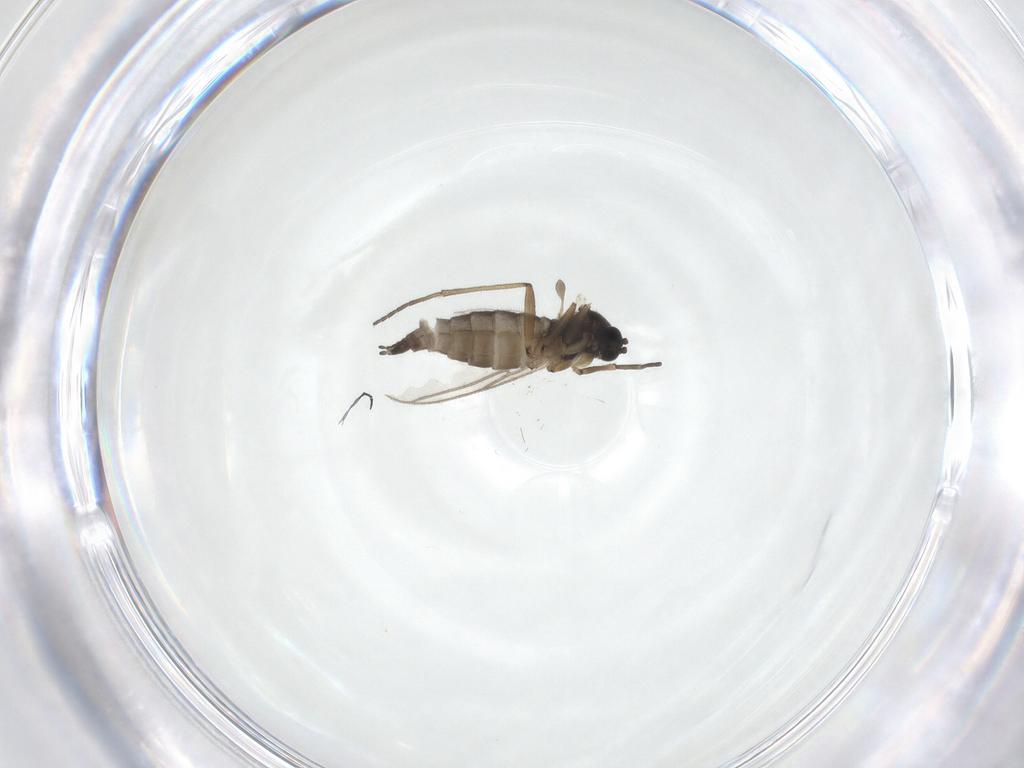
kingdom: Animalia
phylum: Arthropoda
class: Insecta
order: Diptera
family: Sciaridae
